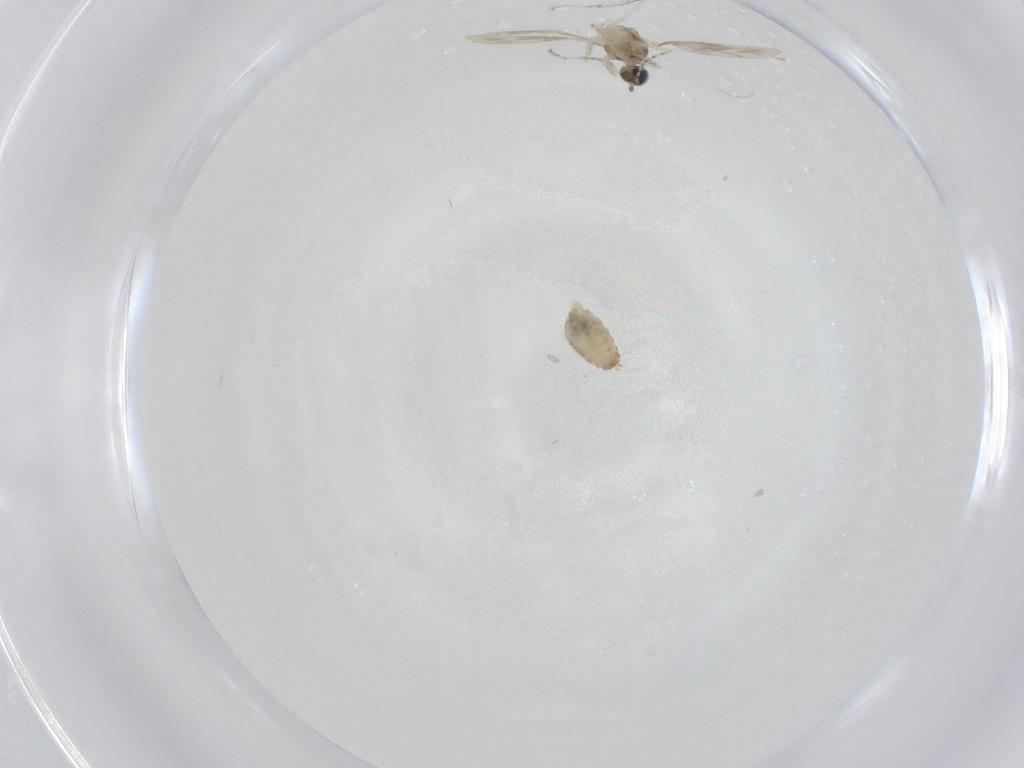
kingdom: Animalia
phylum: Arthropoda
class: Insecta
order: Diptera
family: Cecidomyiidae
